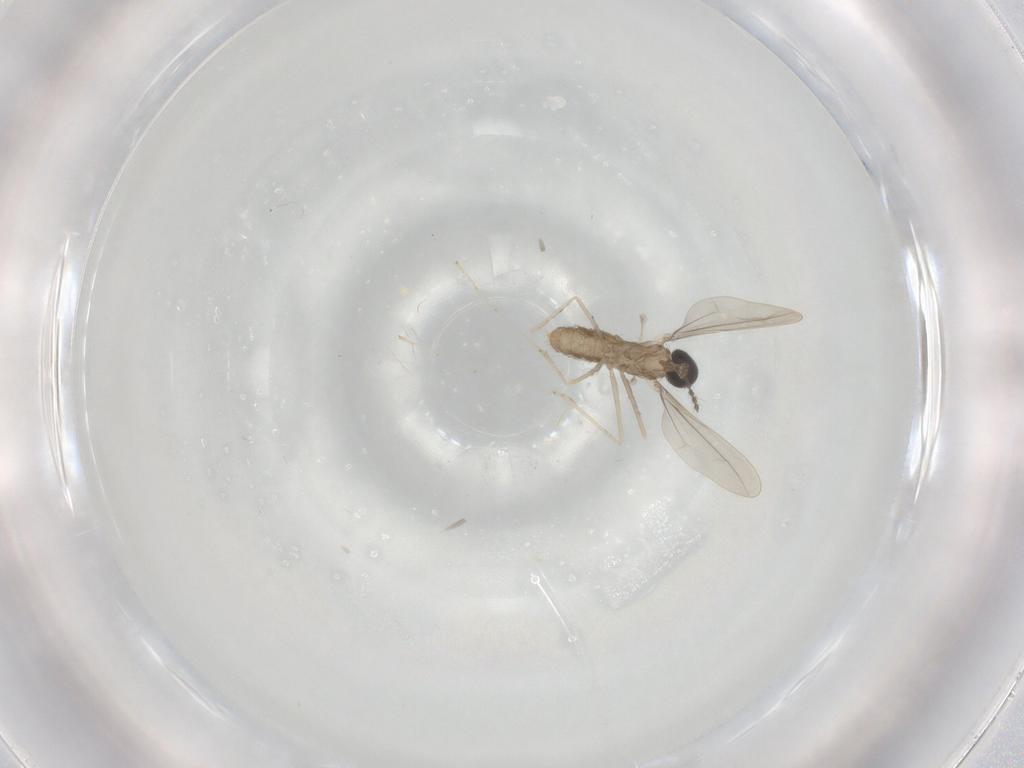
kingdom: Animalia
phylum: Arthropoda
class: Insecta
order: Diptera
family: Cecidomyiidae
